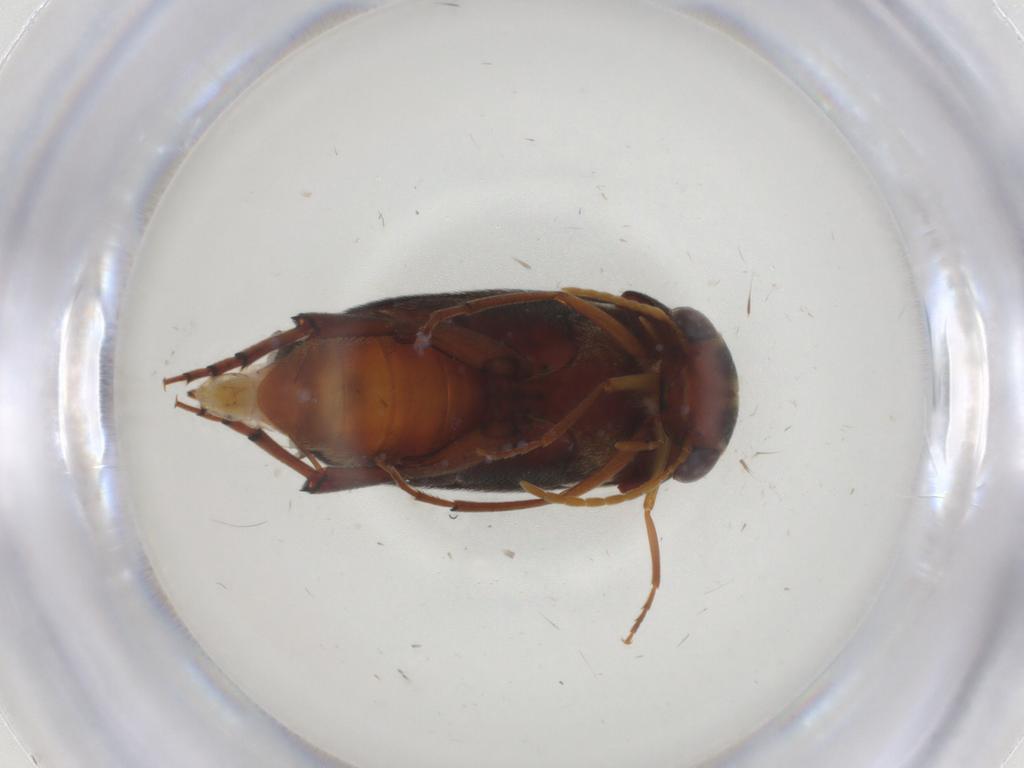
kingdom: Animalia
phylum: Arthropoda
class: Insecta
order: Coleoptera
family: Mordellidae
